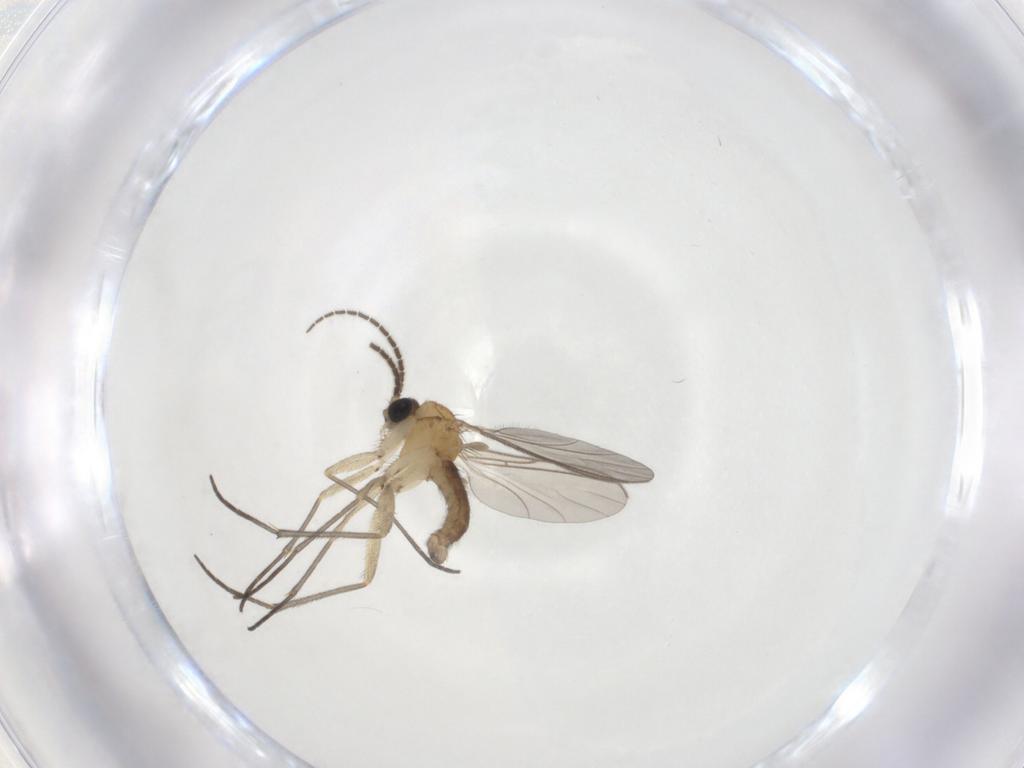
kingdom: Animalia
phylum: Arthropoda
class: Insecta
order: Diptera
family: Sciaridae
